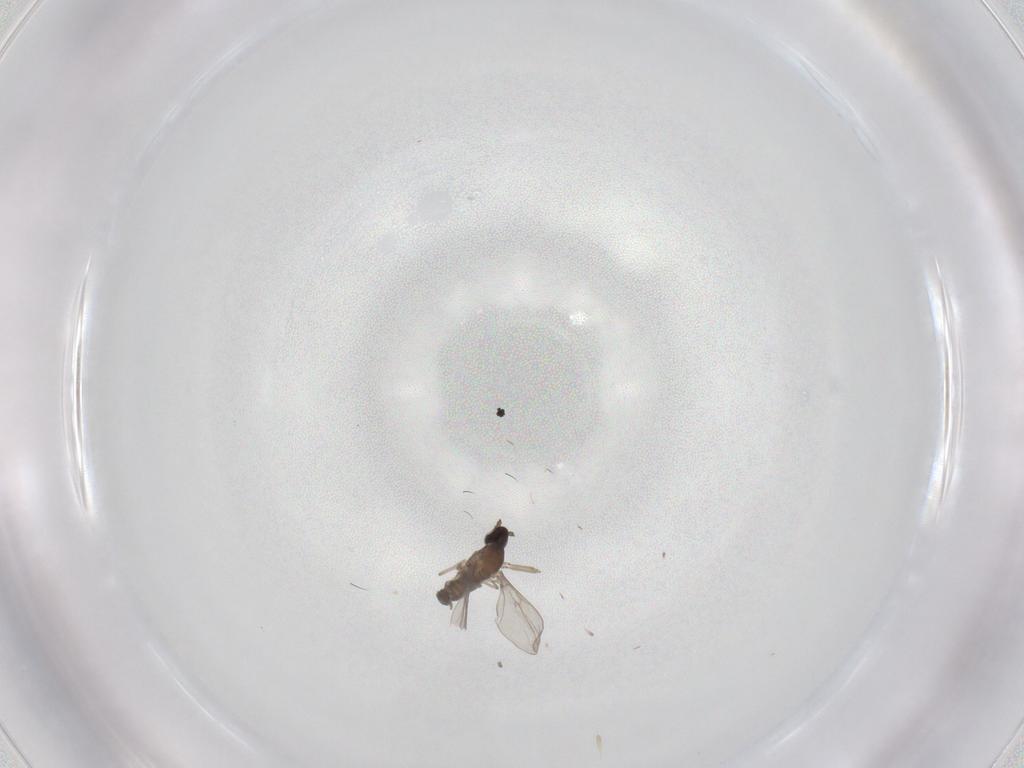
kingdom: Animalia
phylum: Arthropoda
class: Insecta
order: Diptera
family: Cecidomyiidae
